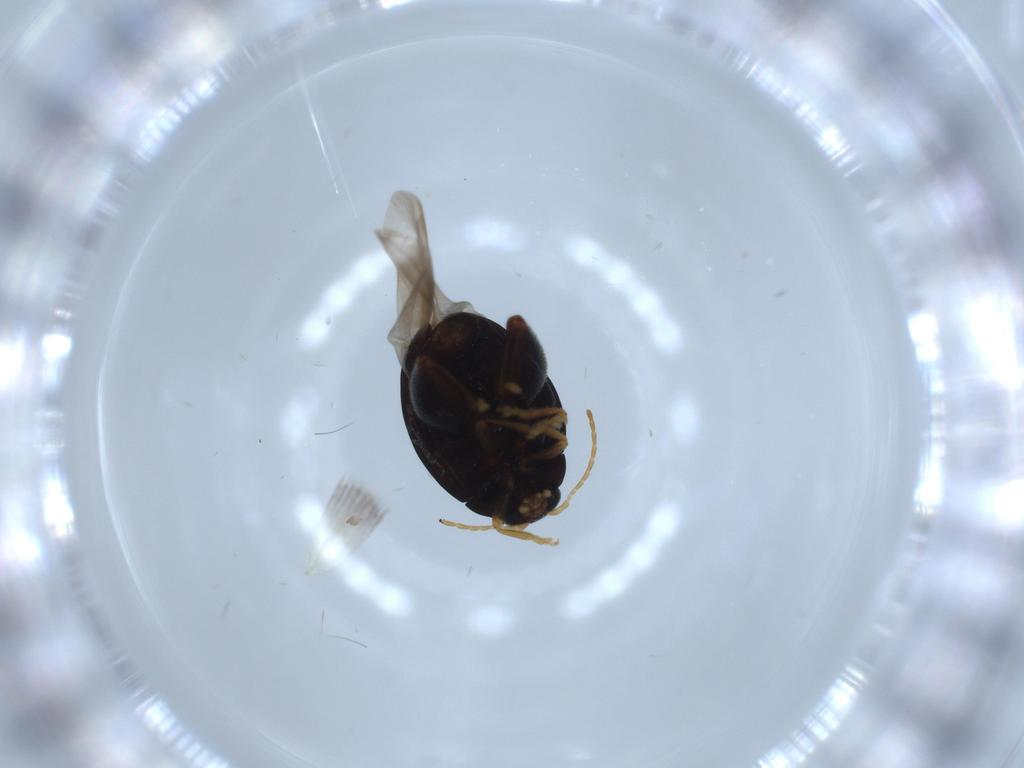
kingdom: Animalia
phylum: Arthropoda
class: Insecta
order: Coleoptera
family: Chrysomelidae
